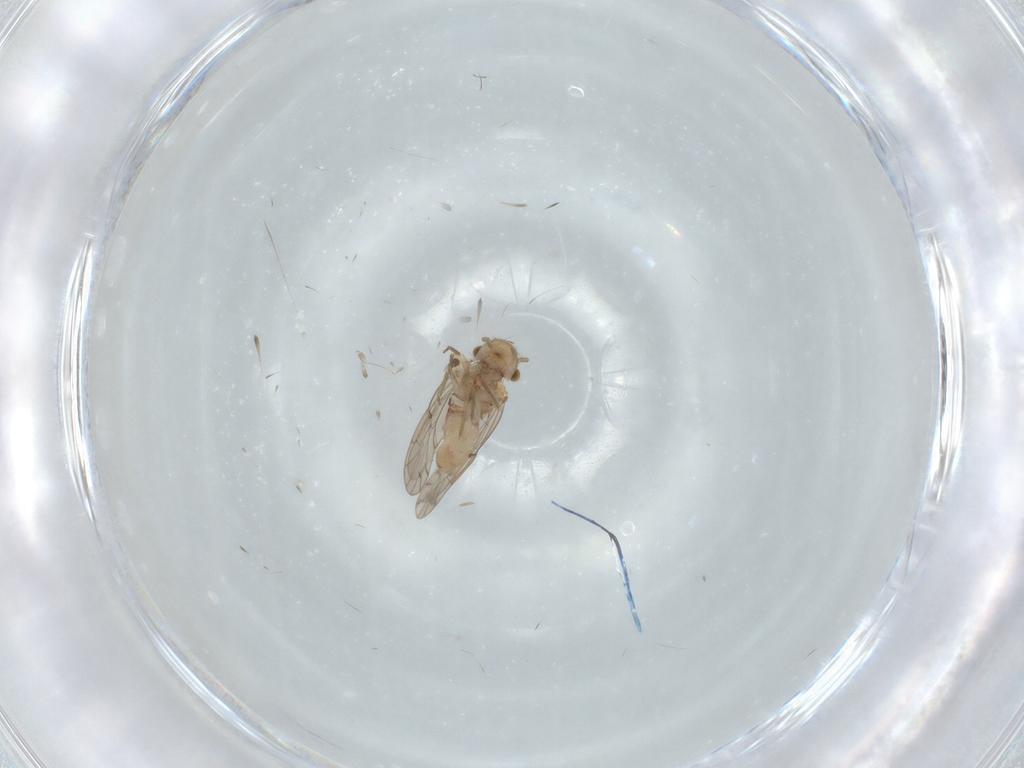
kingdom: Animalia
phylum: Arthropoda
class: Insecta
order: Psocodea
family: Ectopsocidae
